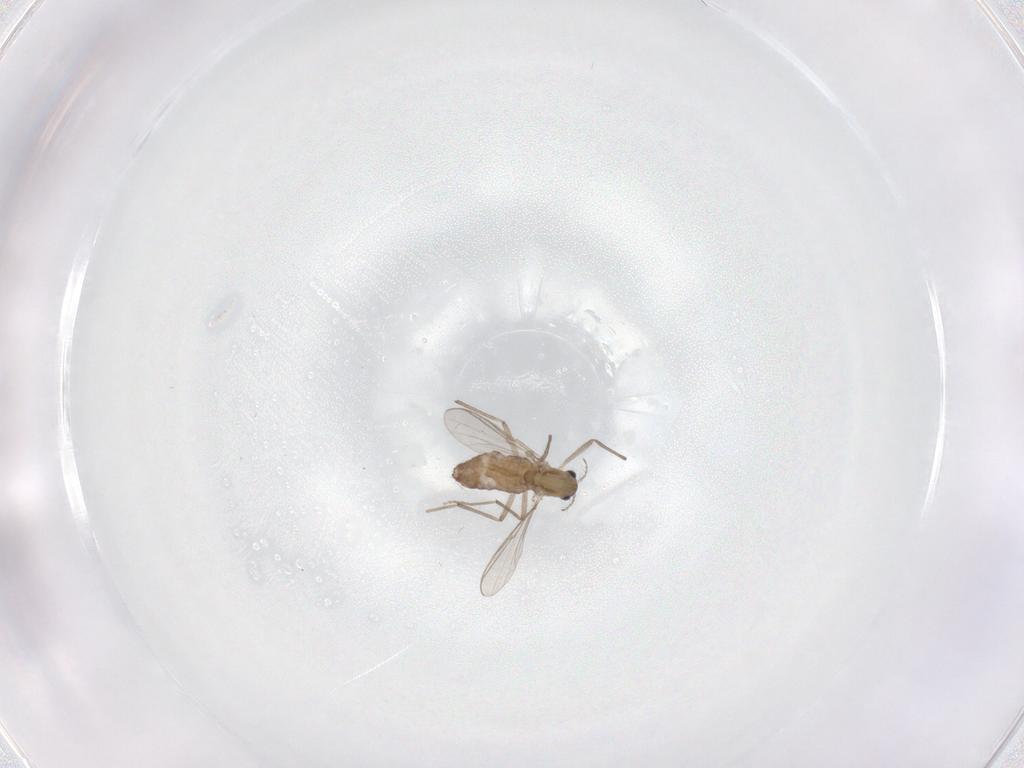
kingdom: Animalia
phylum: Arthropoda
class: Insecta
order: Diptera
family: Chironomidae
